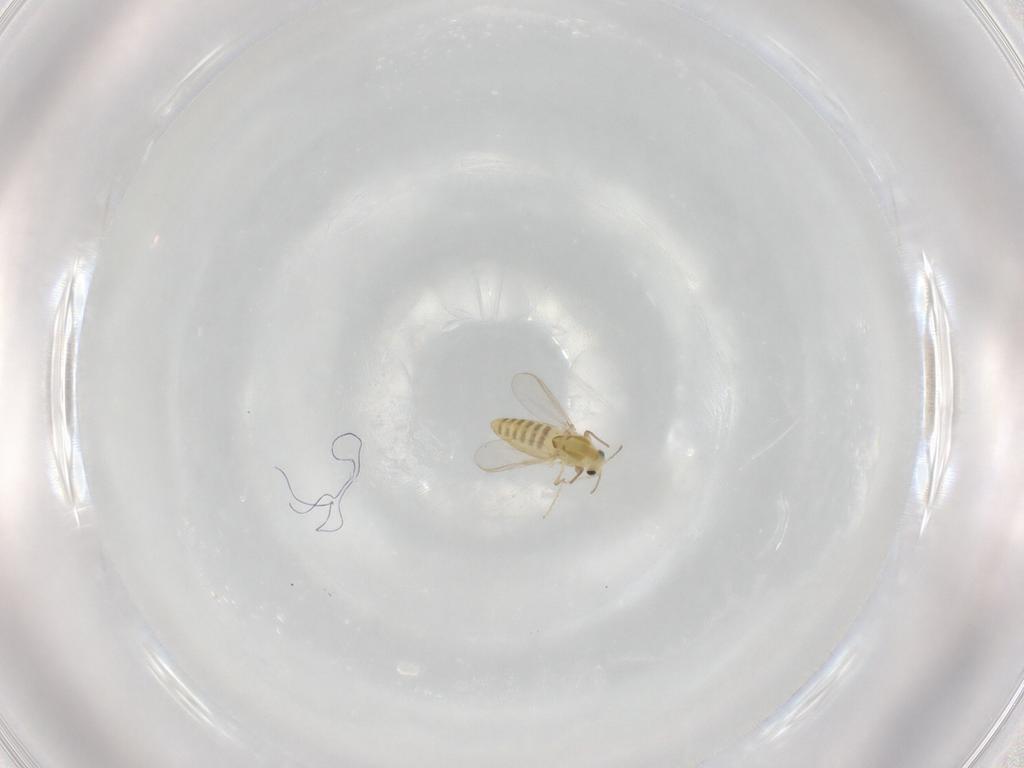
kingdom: Animalia
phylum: Arthropoda
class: Insecta
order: Diptera
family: Chironomidae
